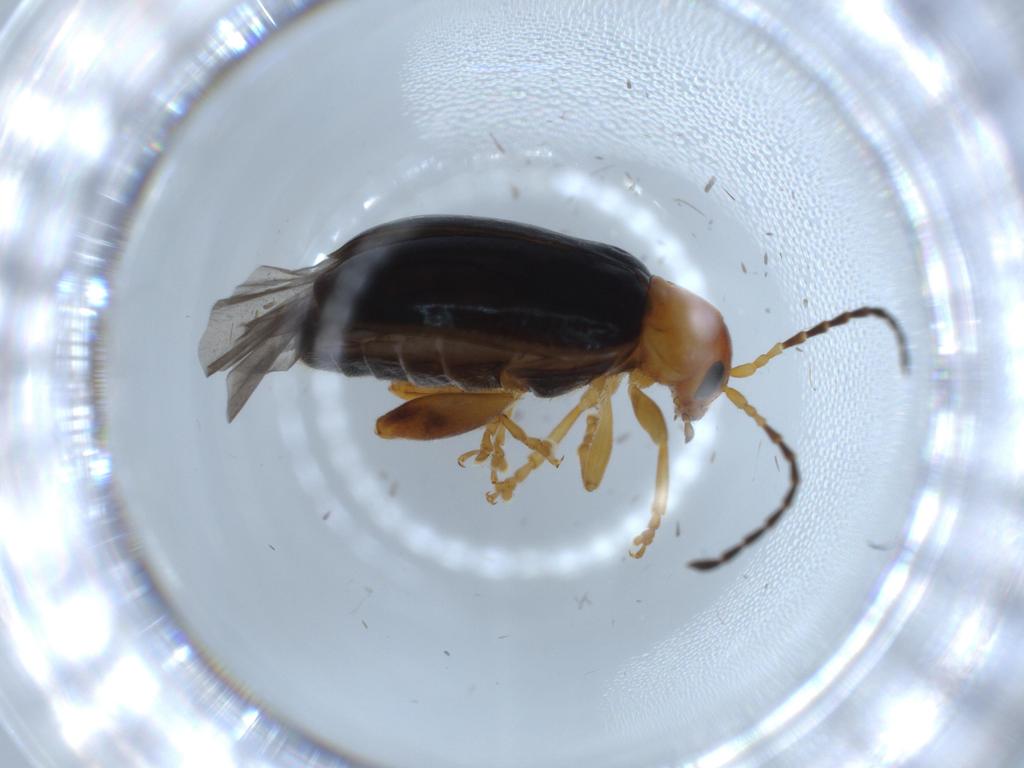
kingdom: Animalia
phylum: Arthropoda
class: Insecta
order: Coleoptera
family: Chrysomelidae
